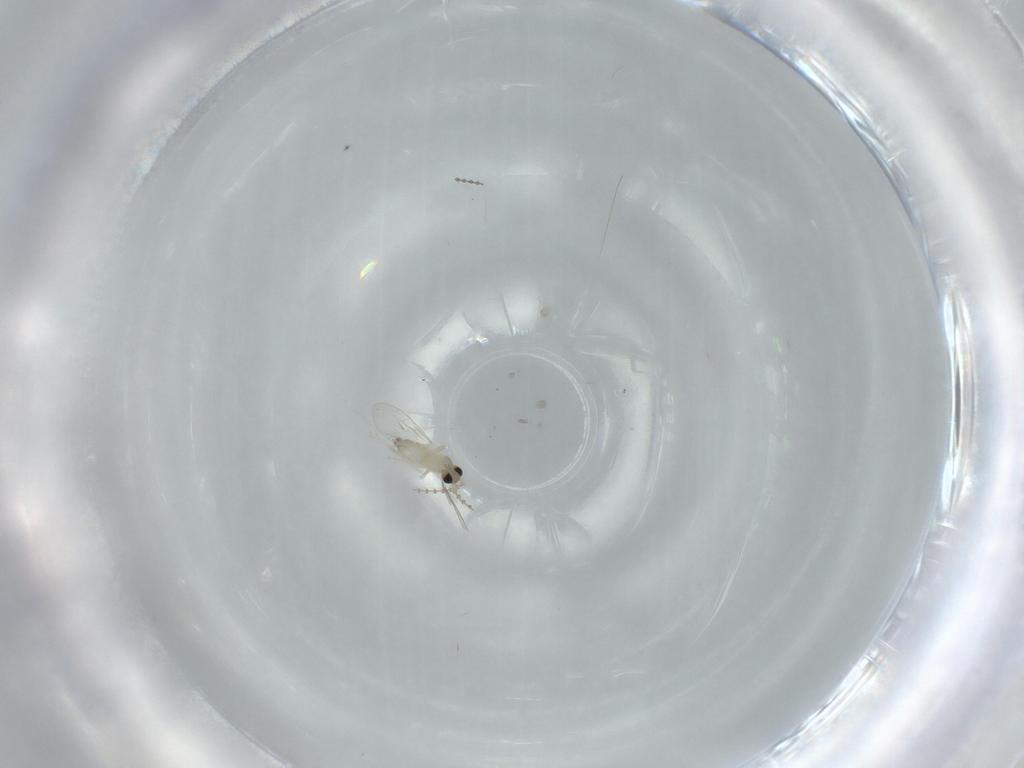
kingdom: Animalia
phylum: Arthropoda
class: Insecta
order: Diptera
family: Cecidomyiidae
